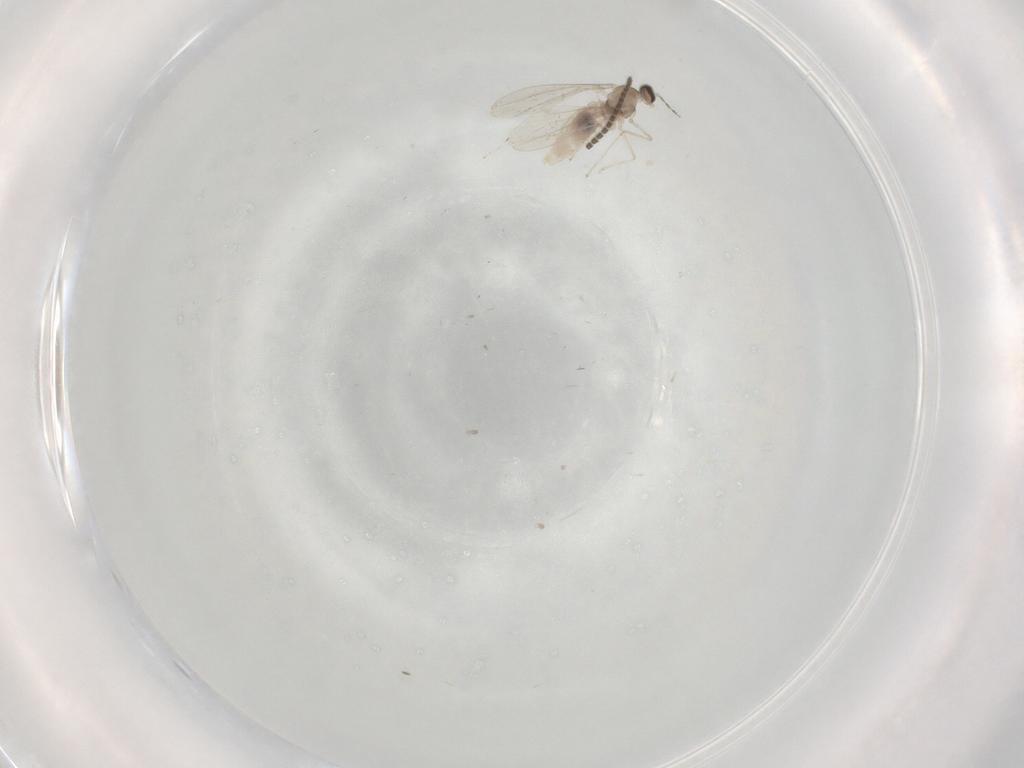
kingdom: Animalia
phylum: Arthropoda
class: Insecta
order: Diptera
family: Sciaridae
